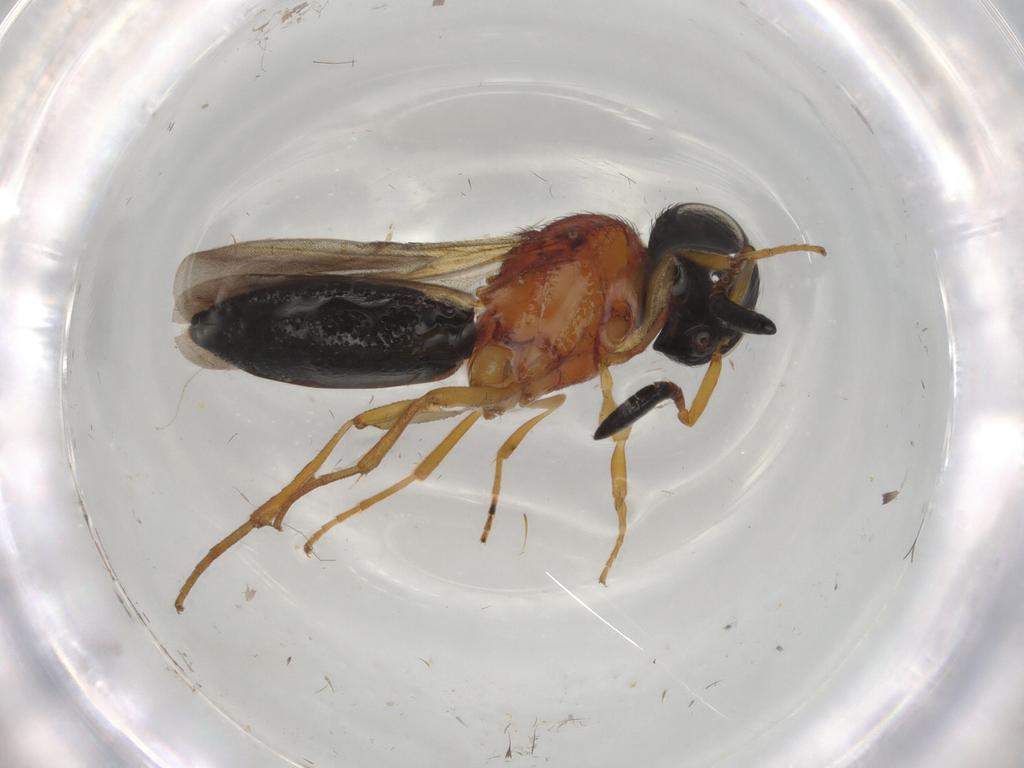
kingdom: Animalia
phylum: Arthropoda
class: Insecta
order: Hymenoptera
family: Scelionidae
